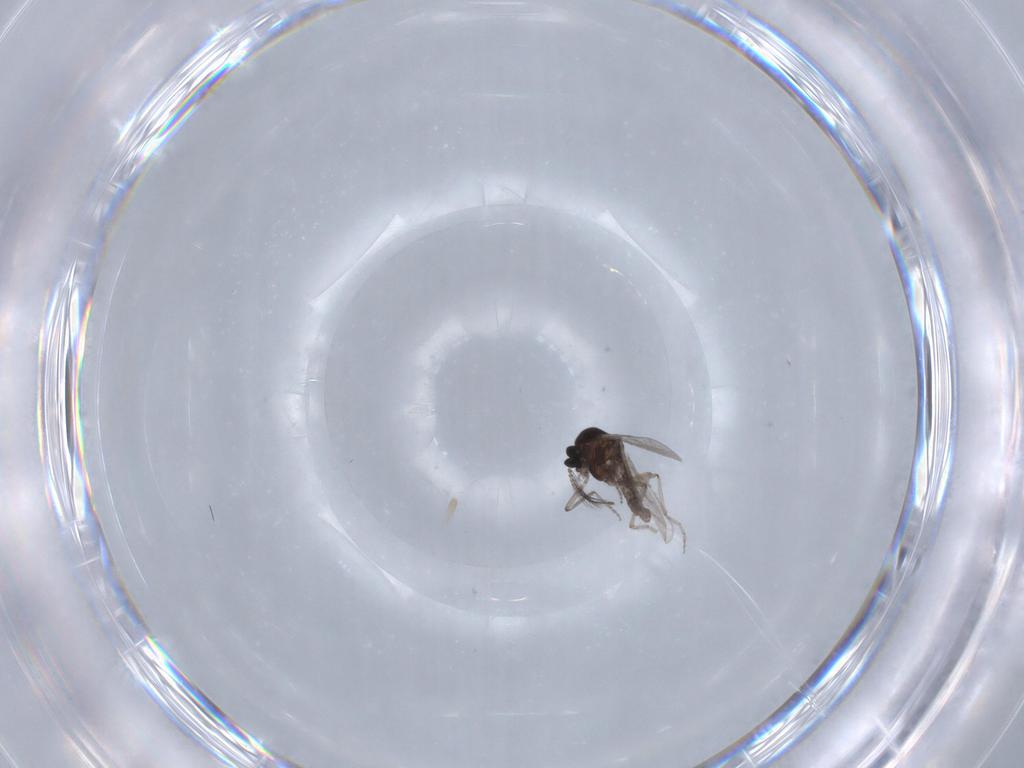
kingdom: Animalia
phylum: Arthropoda
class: Insecta
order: Diptera
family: Ceratopogonidae
